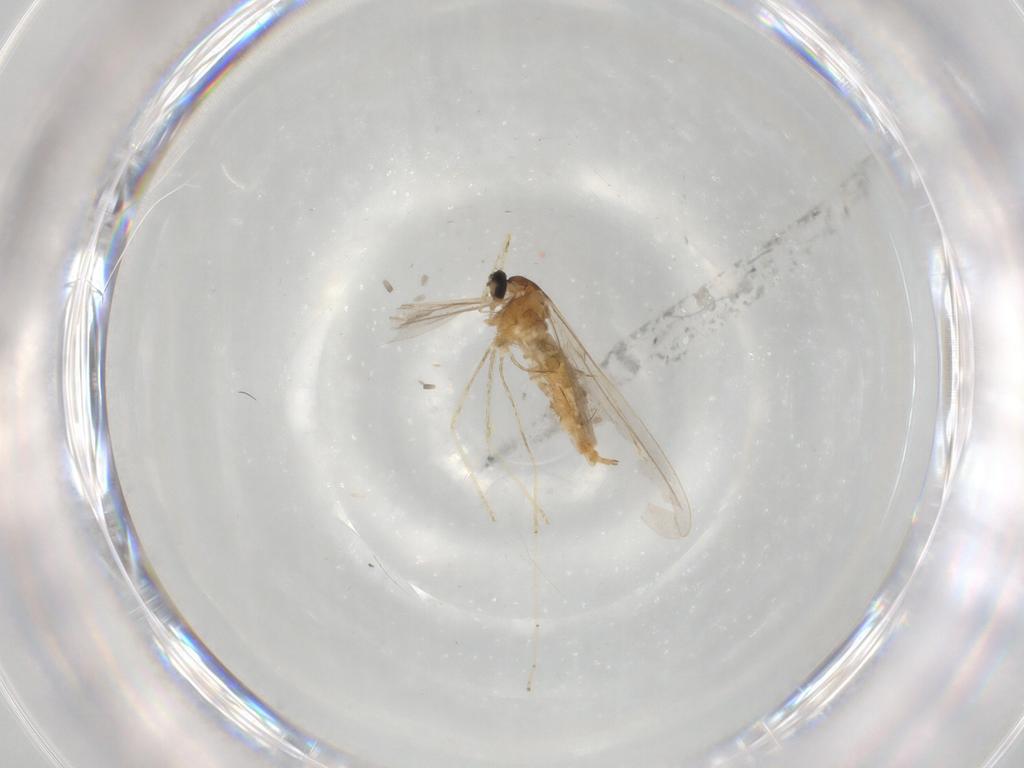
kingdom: Animalia
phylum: Arthropoda
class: Insecta
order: Diptera
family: Cecidomyiidae
